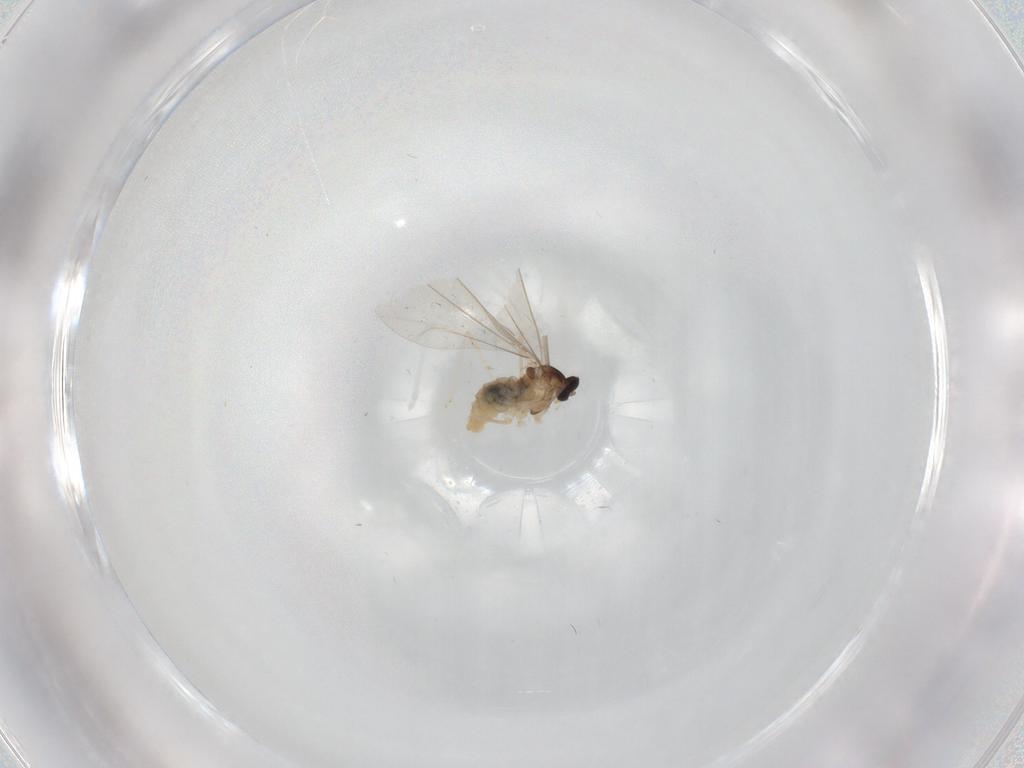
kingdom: Animalia
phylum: Arthropoda
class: Insecta
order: Diptera
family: Cecidomyiidae
